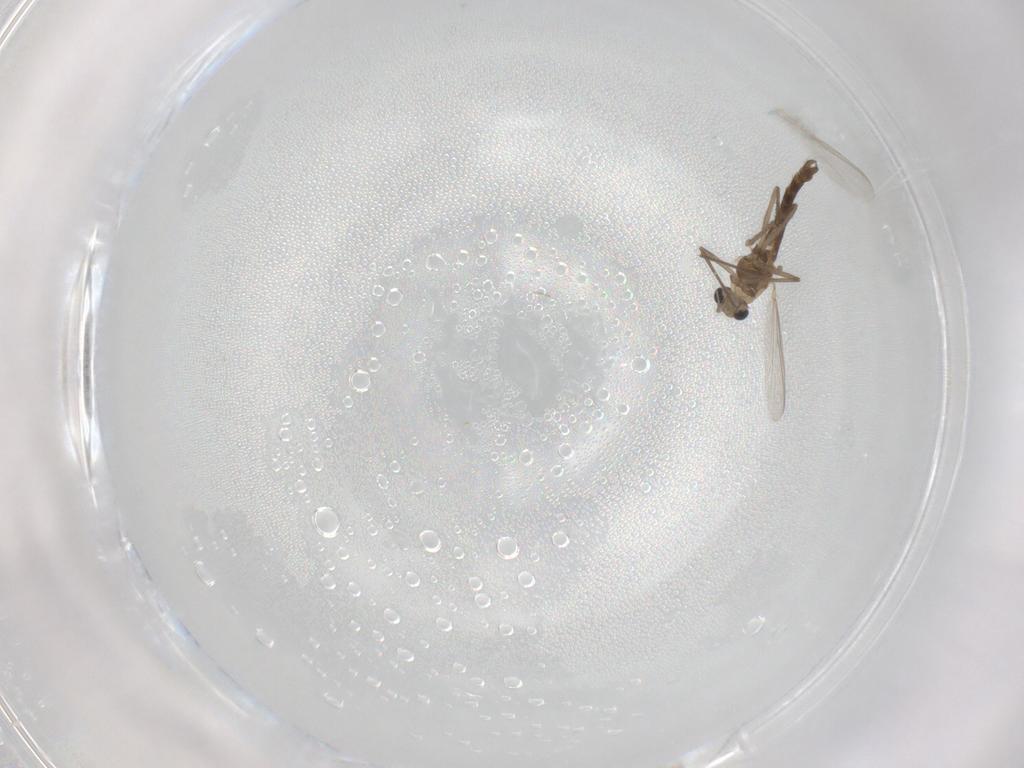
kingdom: Animalia
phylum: Arthropoda
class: Insecta
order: Diptera
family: Chironomidae
